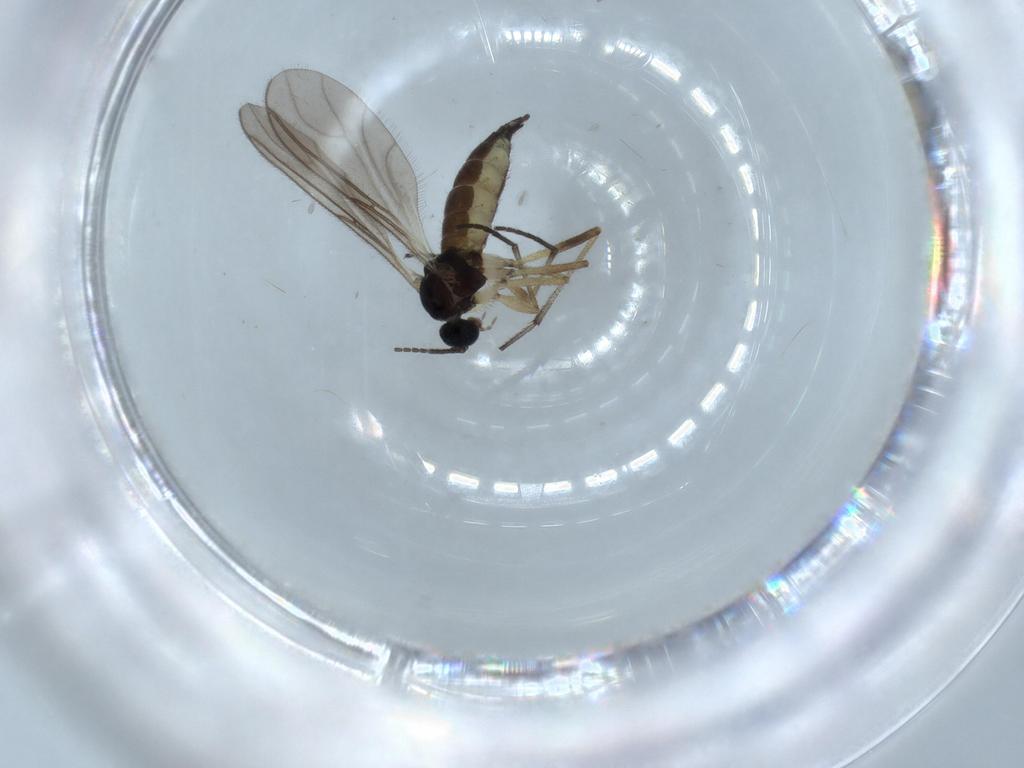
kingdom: Animalia
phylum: Arthropoda
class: Insecta
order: Diptera
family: Sciaridae
